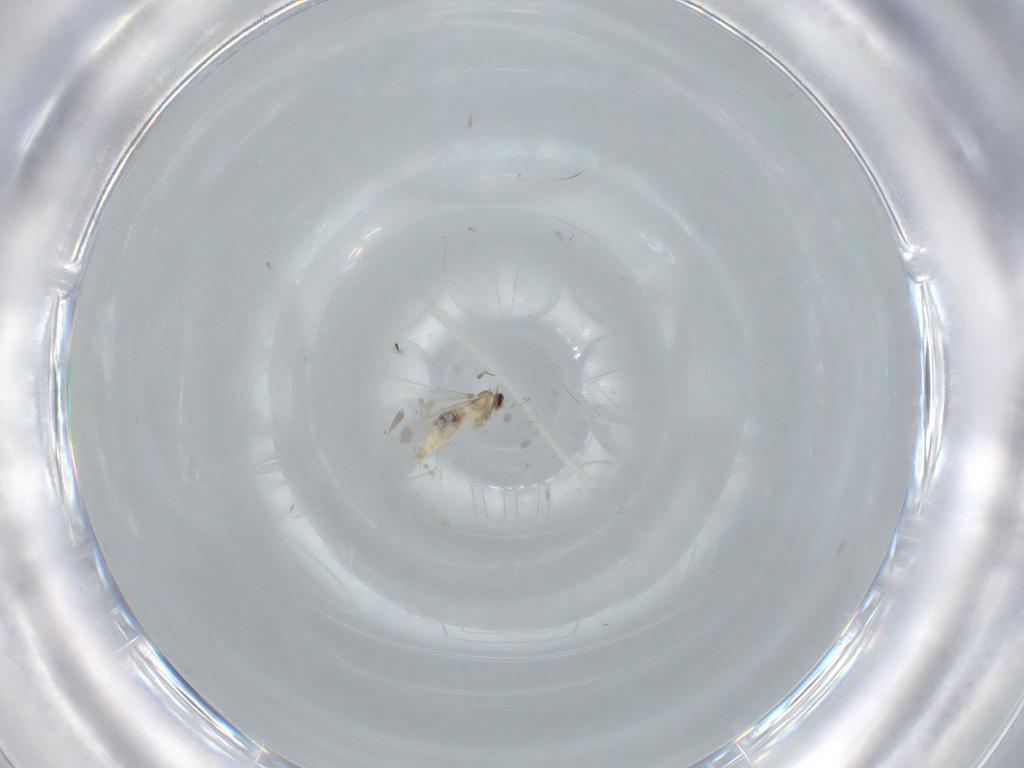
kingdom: Animalia
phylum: Arthropoda
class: Insecta
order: Diptera
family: Cecidomyiidae
